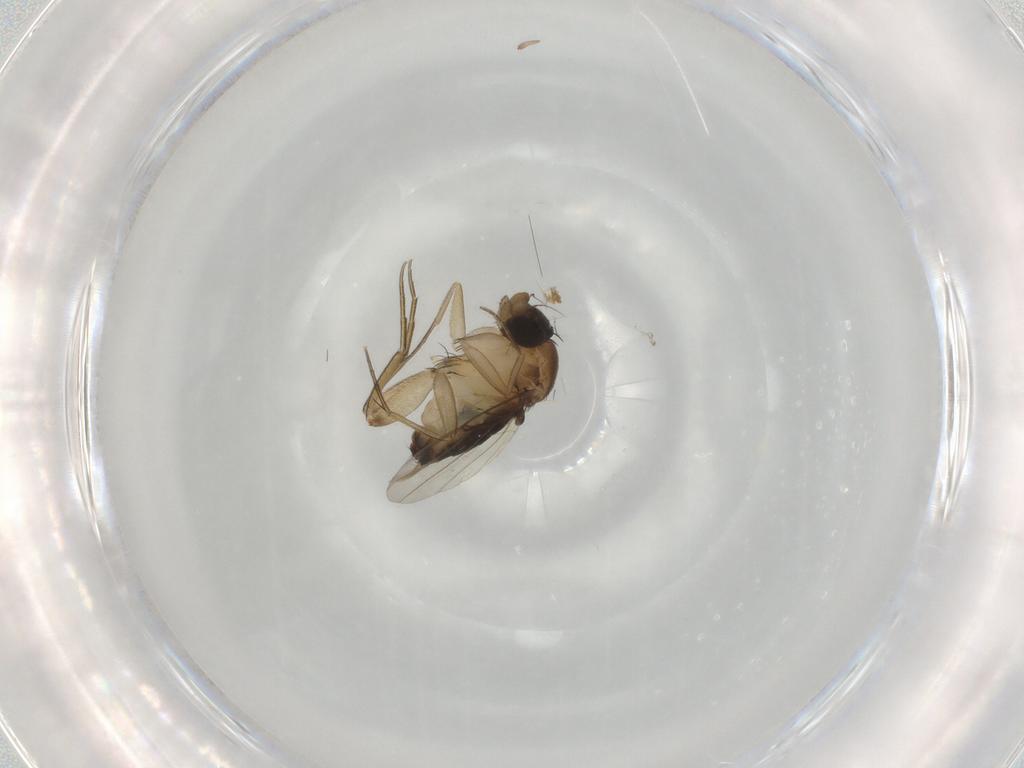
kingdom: Animalia
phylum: Arthropoda
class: Insecta
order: Diptera
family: Phoridae
